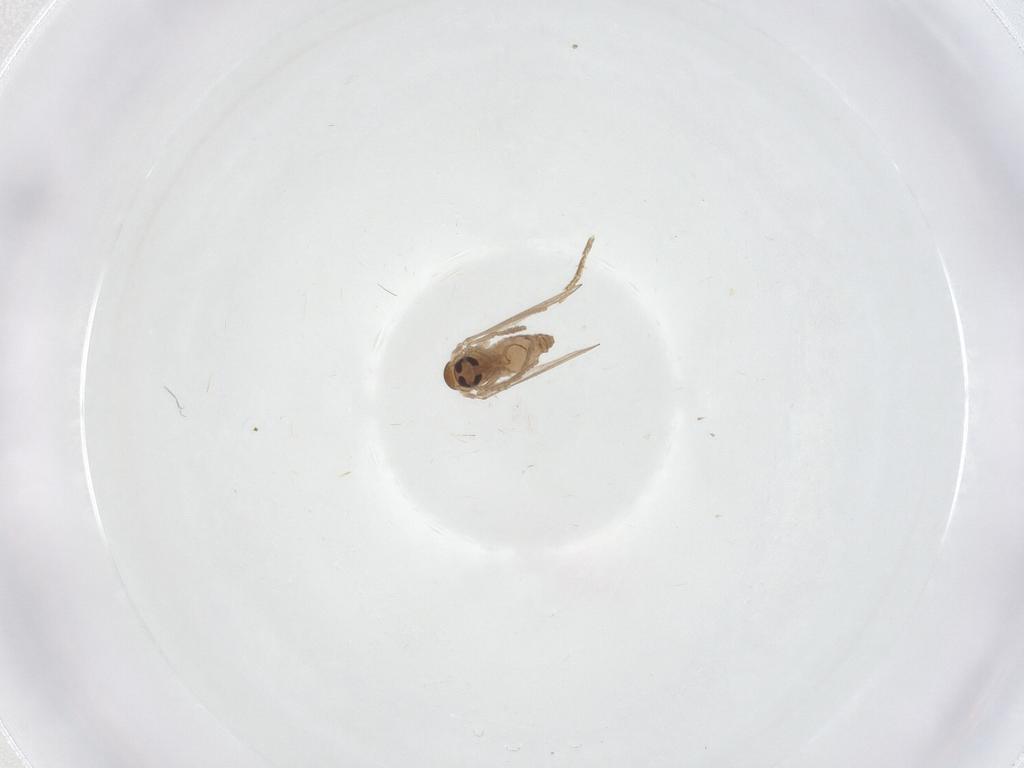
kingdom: Animalia
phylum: Arthropoda
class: Insecta
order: Diptera
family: Psychodidae
